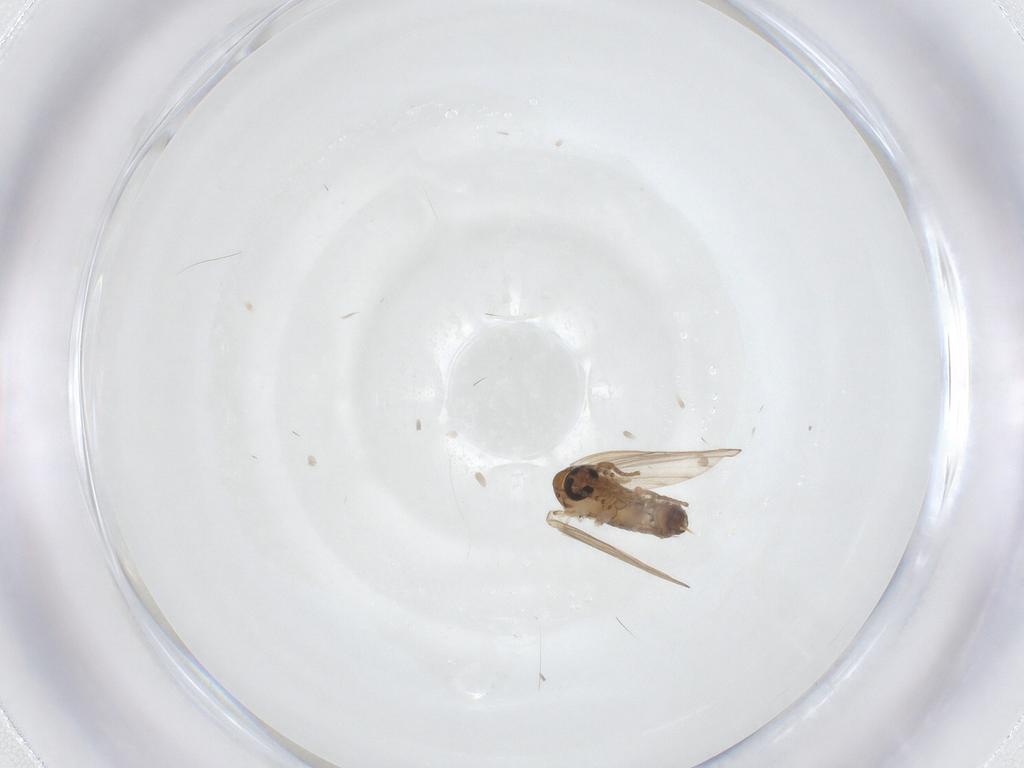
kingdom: Animalia
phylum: Arthropoda
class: Insecta
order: Diptera
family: Psychodidae
